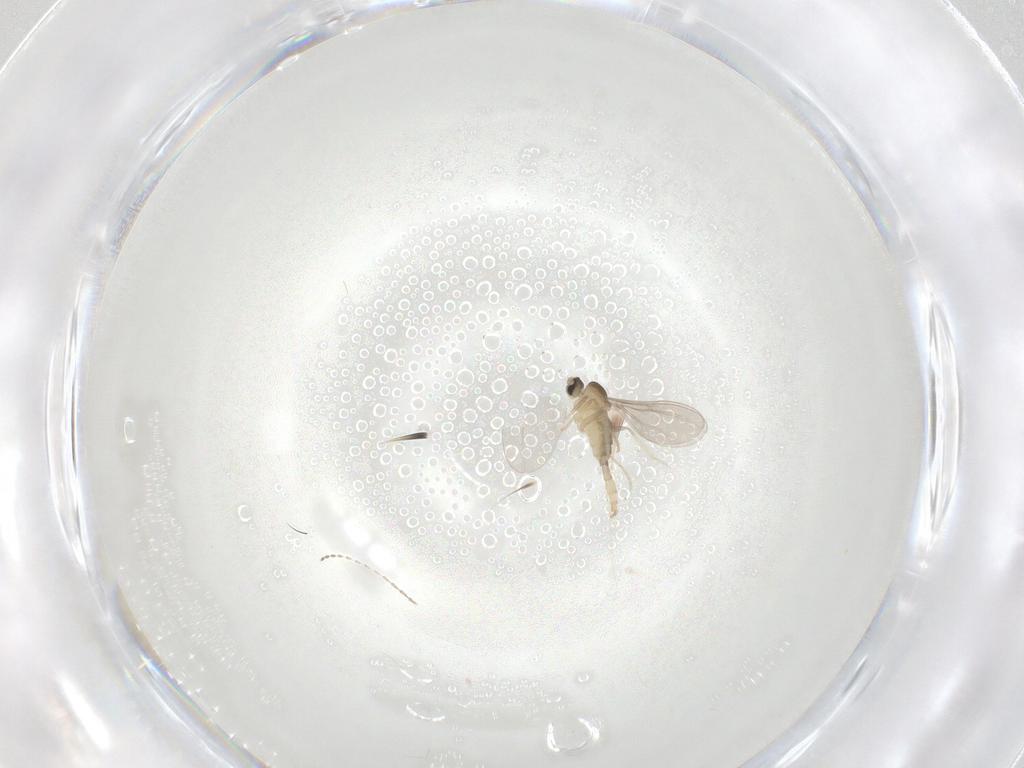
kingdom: Animalia
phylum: Arthropoda
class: Insecta
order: Diptera
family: Cecidomyiidae
